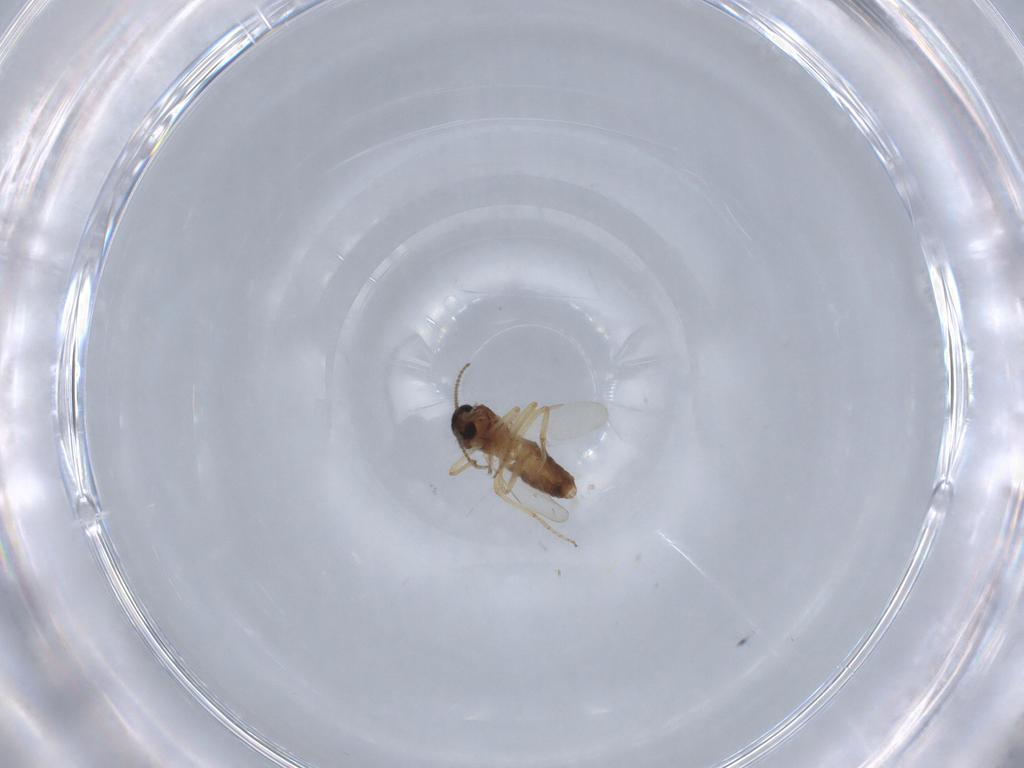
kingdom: Animalia
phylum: Arthropoda
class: Insecta
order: Diptera
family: Ceratopogonidae
